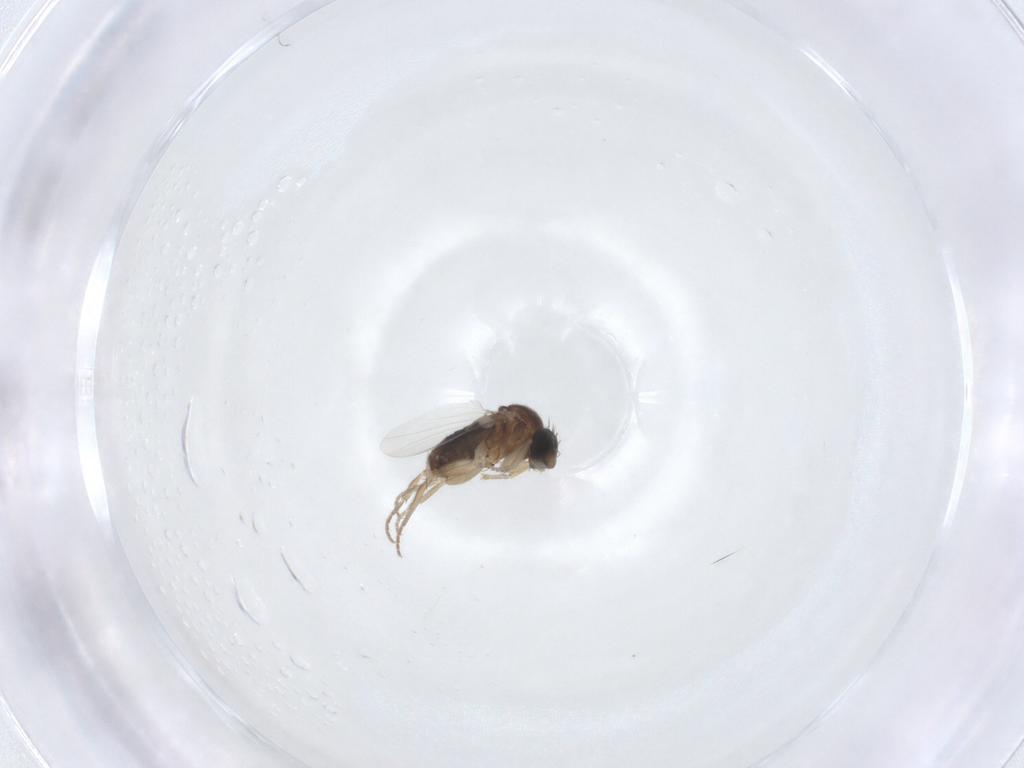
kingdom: Animalia
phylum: Arthropoda
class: Insecta
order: Diptera
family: Phoridae
